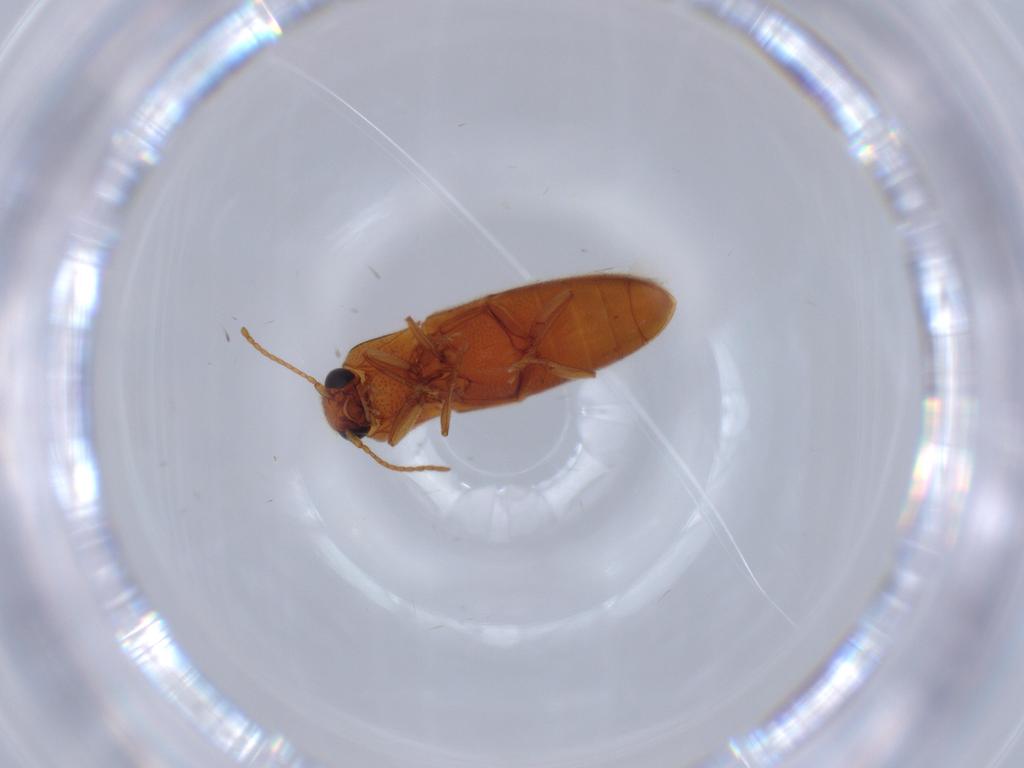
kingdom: Animalia
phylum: Arthropoda
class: Insecta
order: Coleoptera
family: Elateridae
